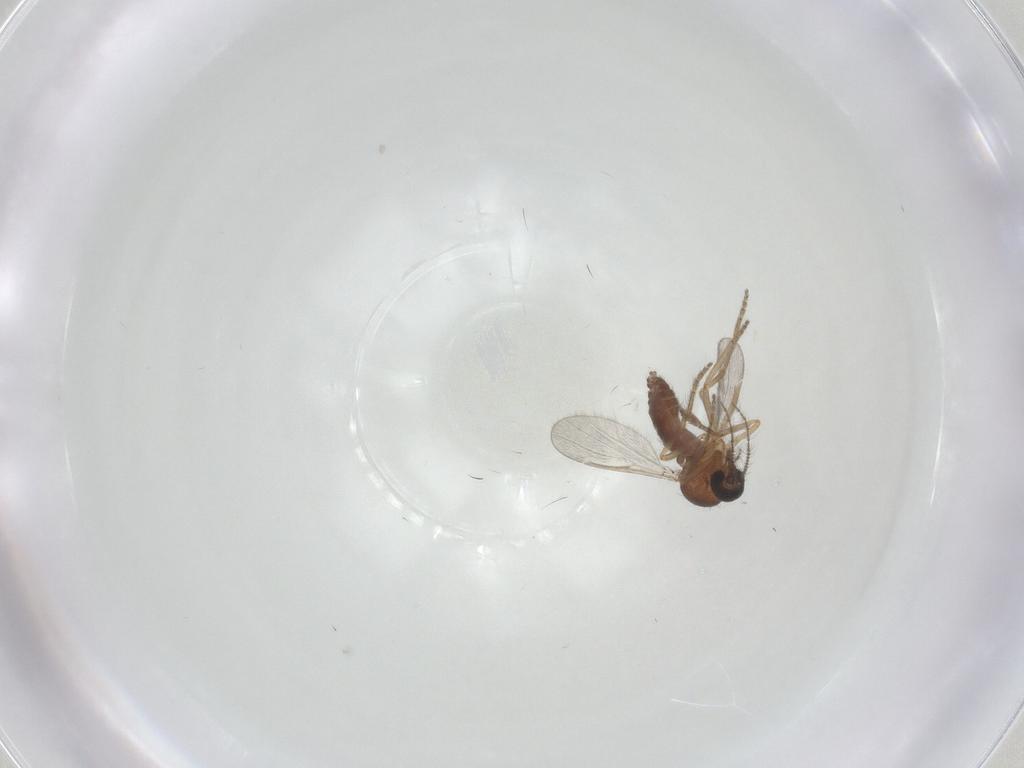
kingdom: Animalia
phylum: Arthropoda
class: Insecta
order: Diptera
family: Ceratopogonidae
